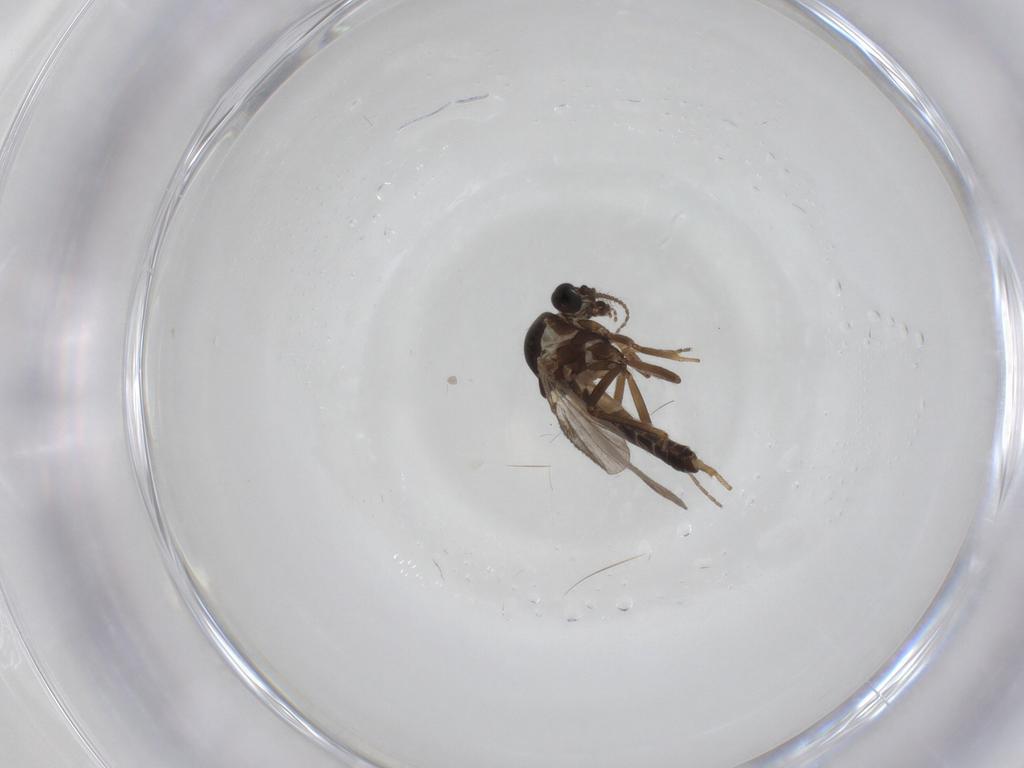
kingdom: Animalia
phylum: Arthropoda
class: Insecta
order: Diptera
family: Ceratopogonidae
